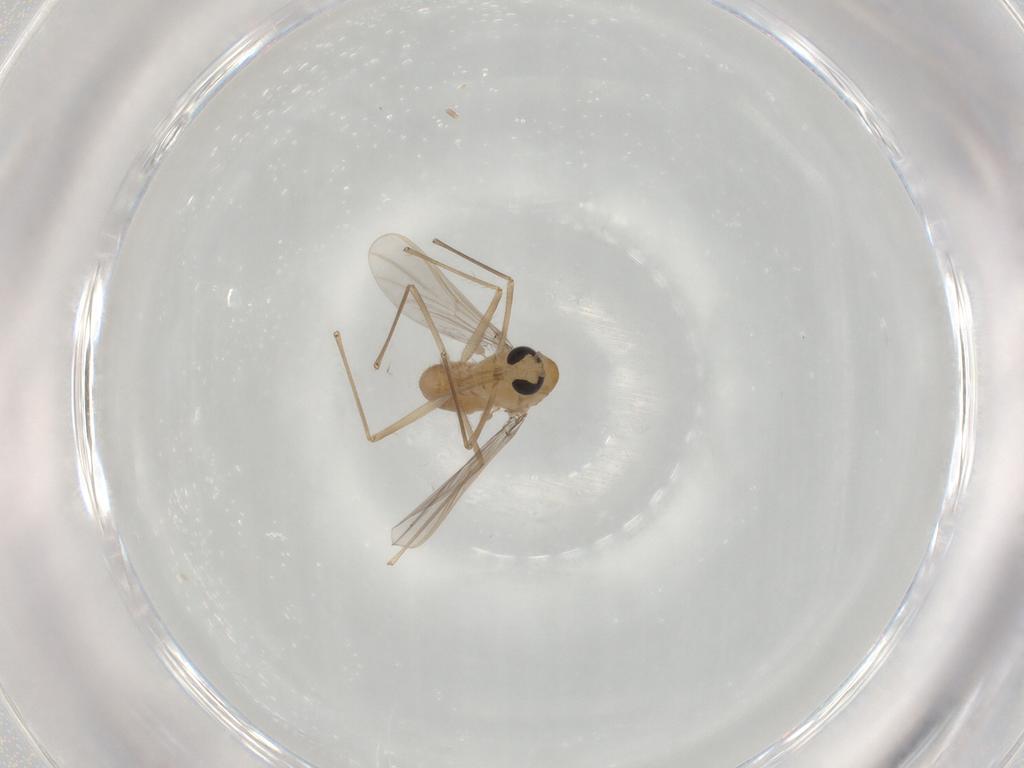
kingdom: Animalia
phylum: Arthropoda
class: Insecta
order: Diptera
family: Chironomidae
